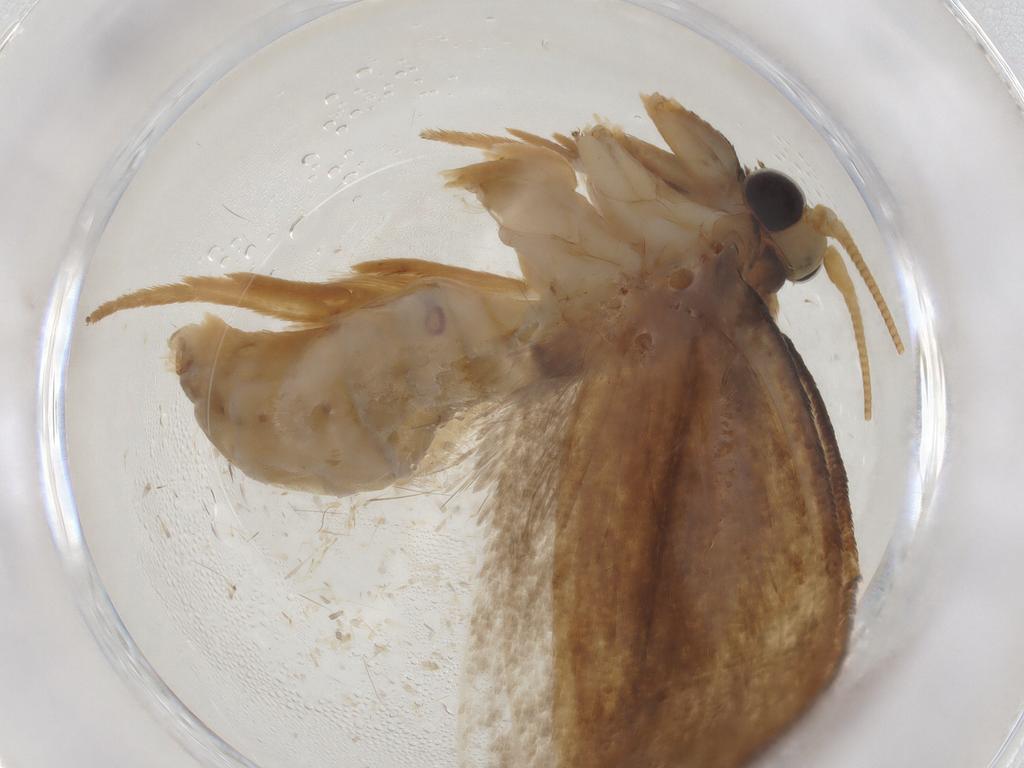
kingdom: Animalia
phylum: Arthropoda
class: Insecta
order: Lepidoptera
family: Tineidae
